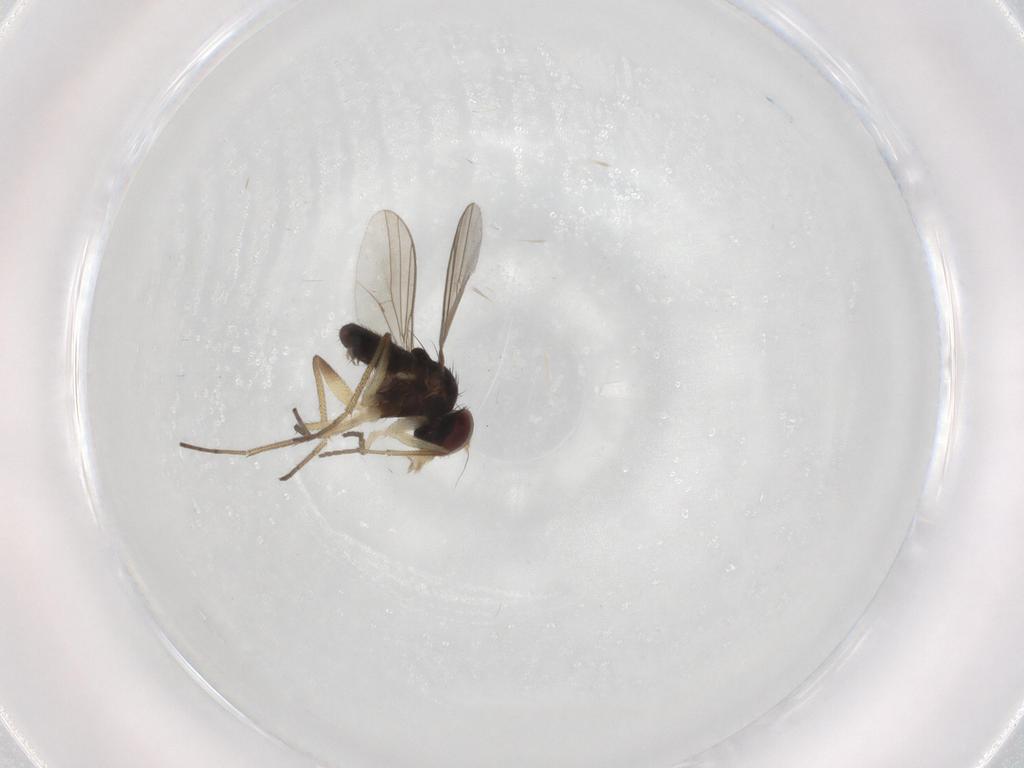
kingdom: Animalia
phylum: Arthropoda
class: Insecta
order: Diptera
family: Dolichopodidae
